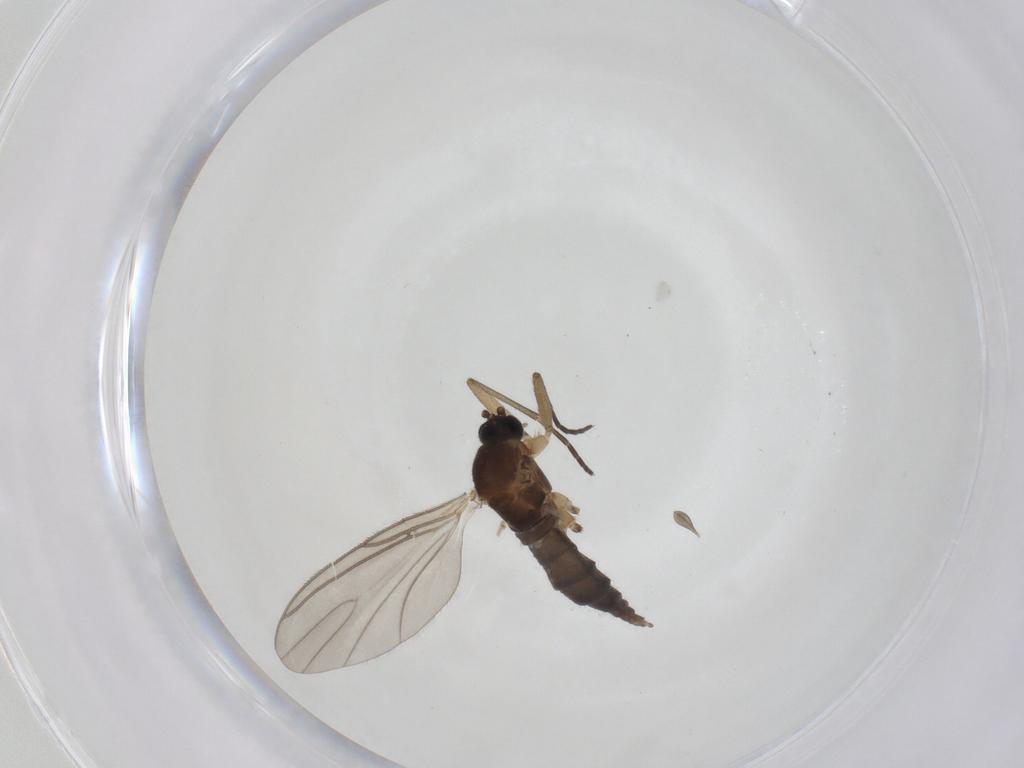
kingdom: Animalia
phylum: Arthropoda
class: Insecta
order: Diptera
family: Sciaridae
